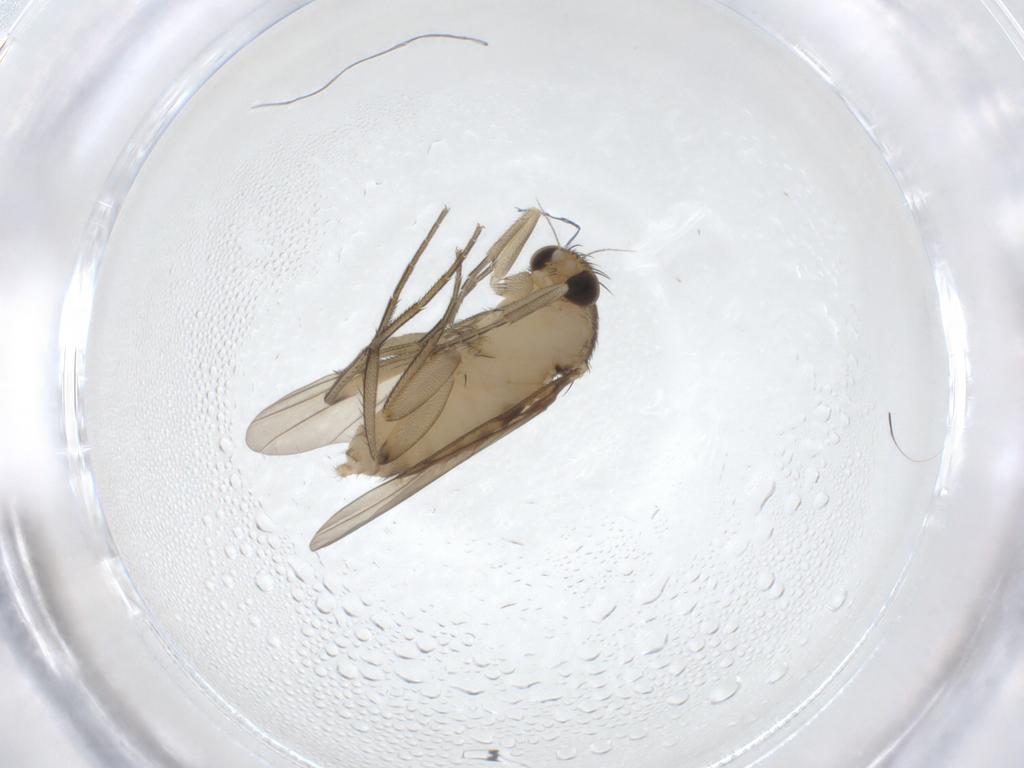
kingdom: Animalia
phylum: Arthropoda
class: Insecta
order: Diptera
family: Phoridae
